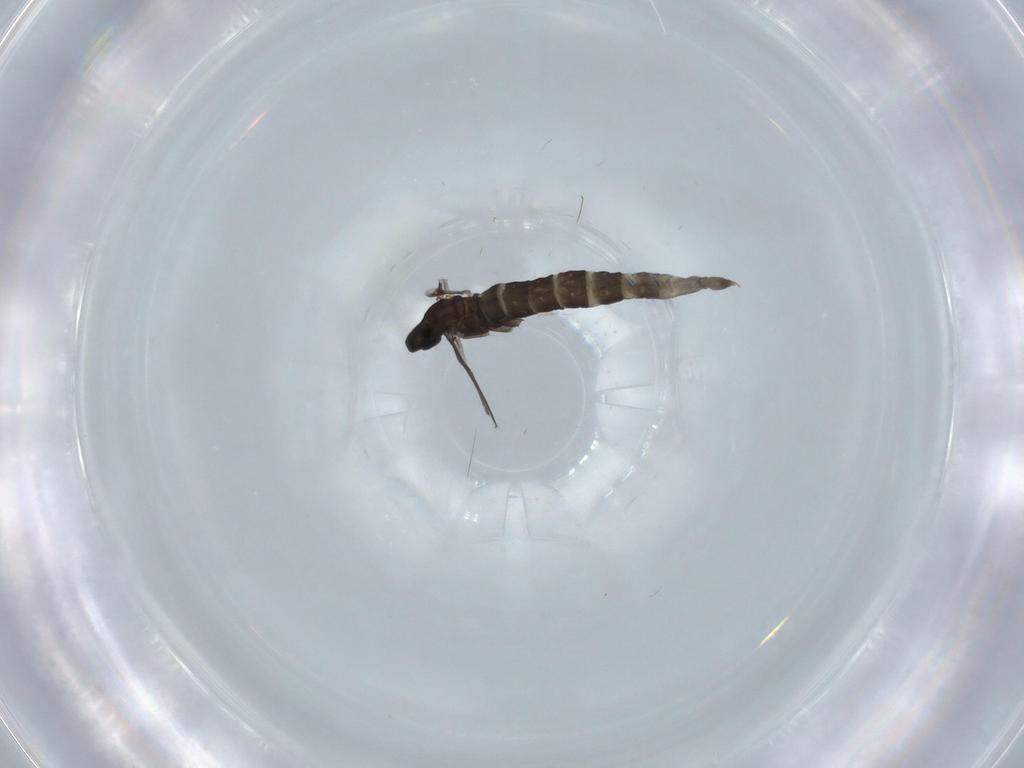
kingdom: Animalia
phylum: Arthropoda
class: Insecta
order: Diptera
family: Cecidomyiidae
